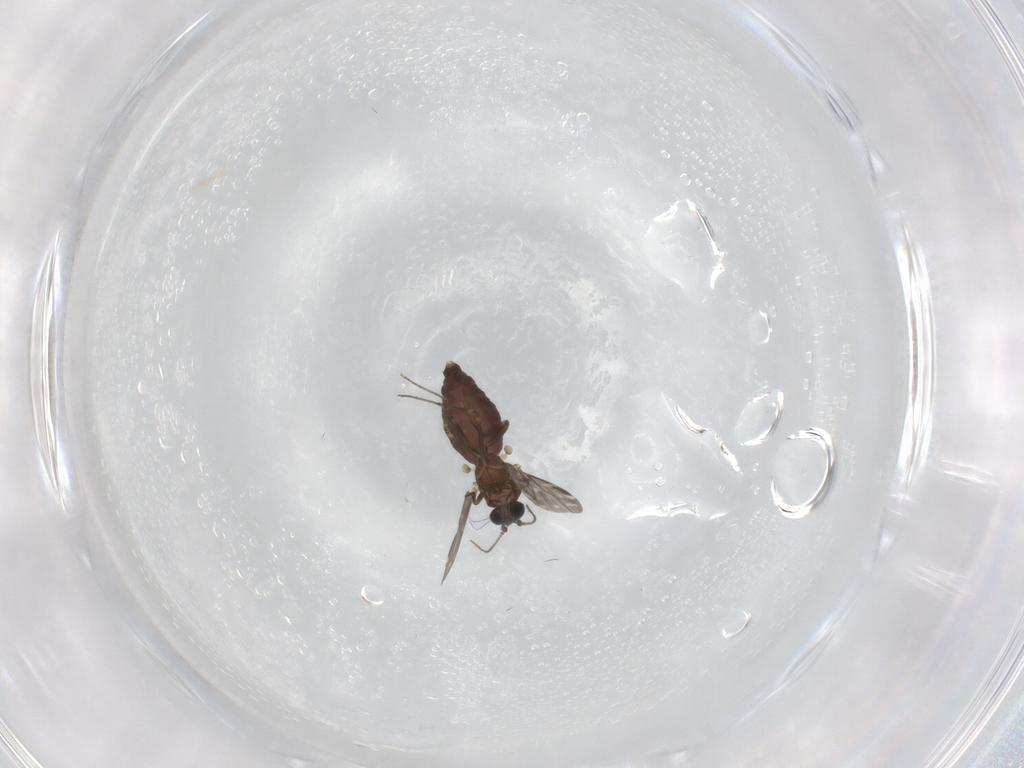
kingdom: Animalia
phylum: Arthropoda
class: Insecta
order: Diptera
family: Ceratopogonidae
